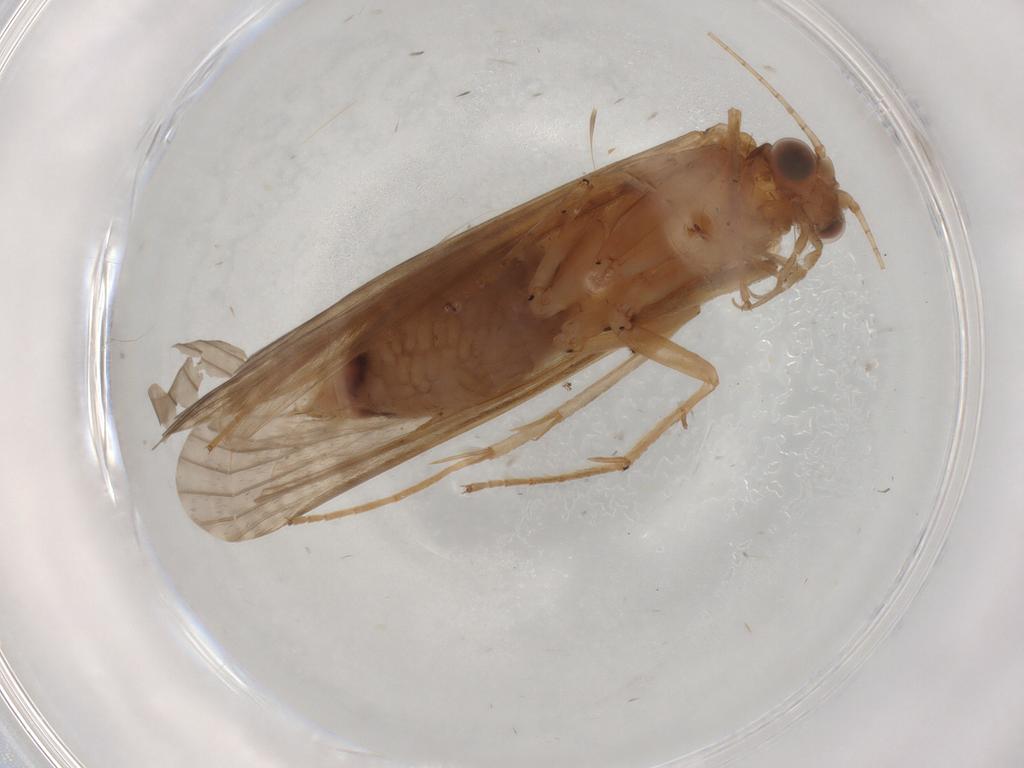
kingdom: Animalia
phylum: Arthropoda
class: Insecta
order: Trichoptera
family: Hydropsychidae
